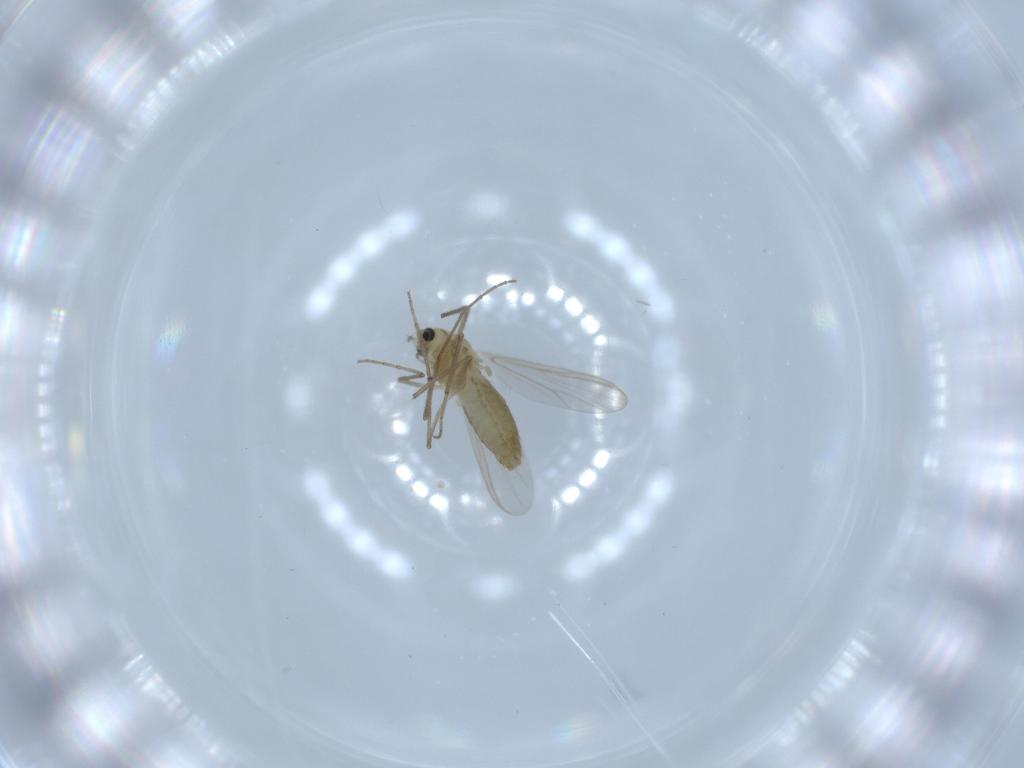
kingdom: Animalia
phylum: Arthropoda
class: Insecta
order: Diptera
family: Chironomidae
